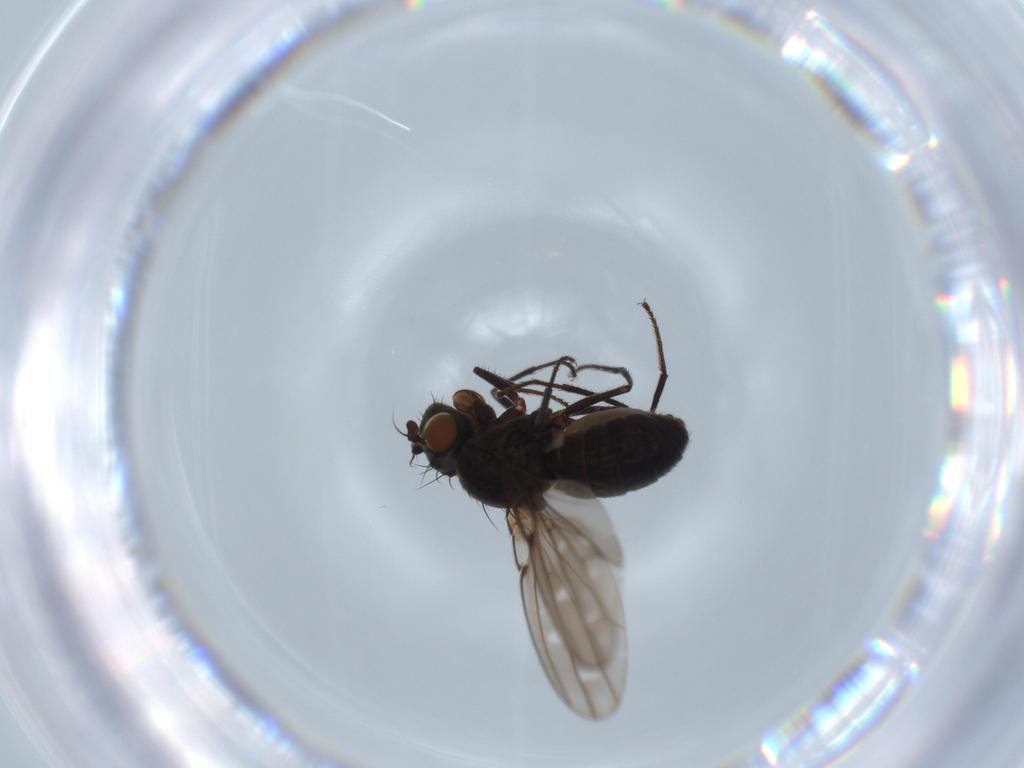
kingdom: Animalia
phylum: Arthropoda
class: Insecta
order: Diptera
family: Ephydridae
